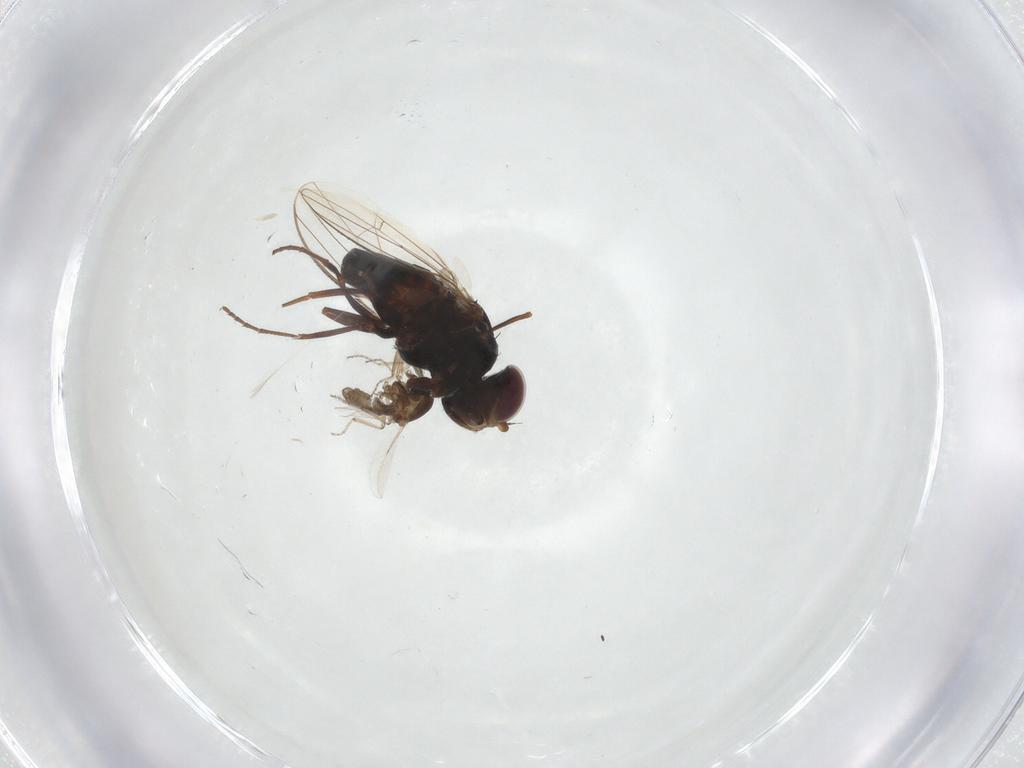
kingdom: Animalia
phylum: Arthropoda
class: Insecta
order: Diptera
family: Carnidae
